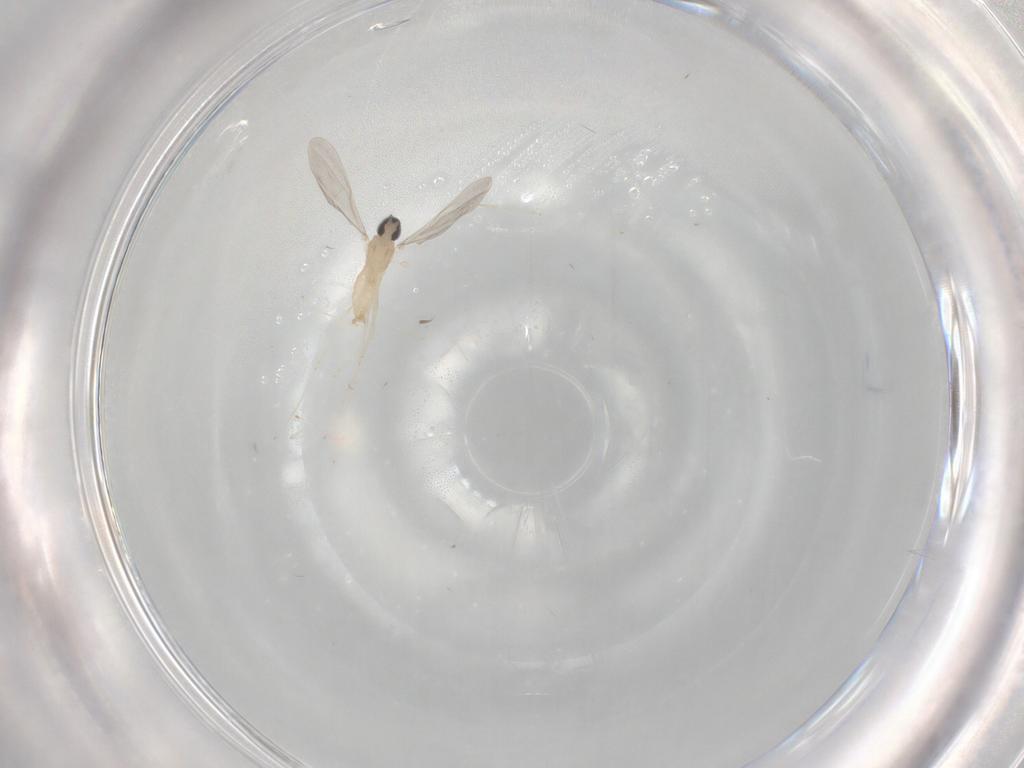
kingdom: Animalia
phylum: Arthropoda
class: Insecta
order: Diptera
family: Cecidomyiidae
